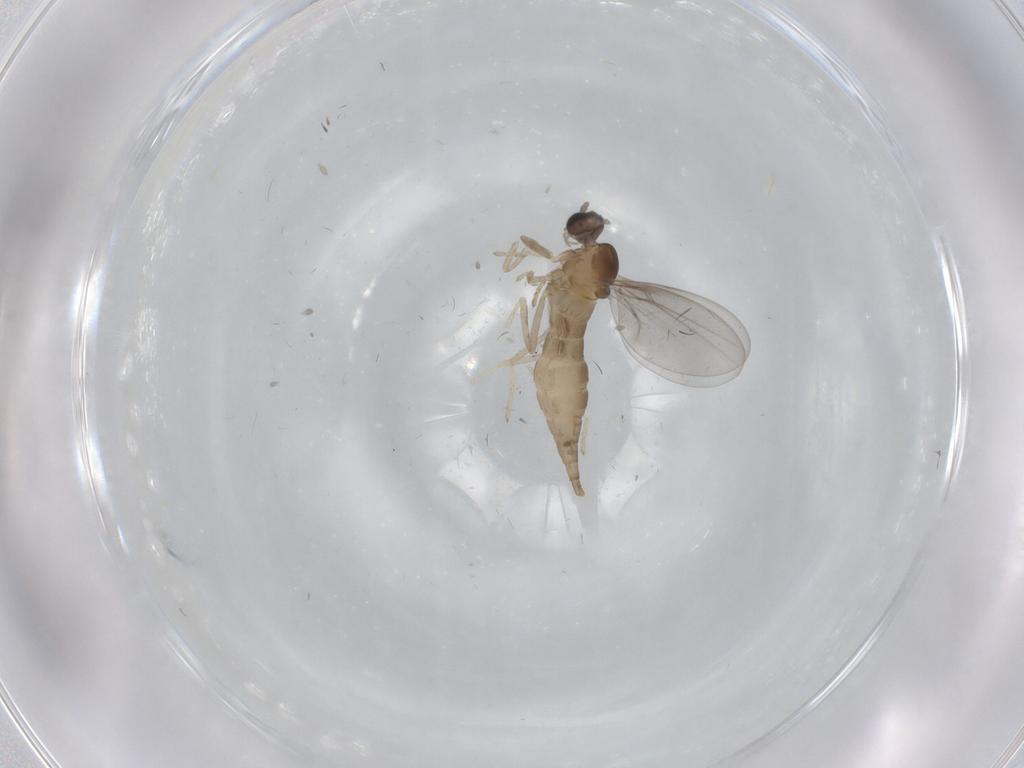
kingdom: Animalia
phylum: Arthropoda
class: Insecta
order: Diptera
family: Cecidomyiidae
